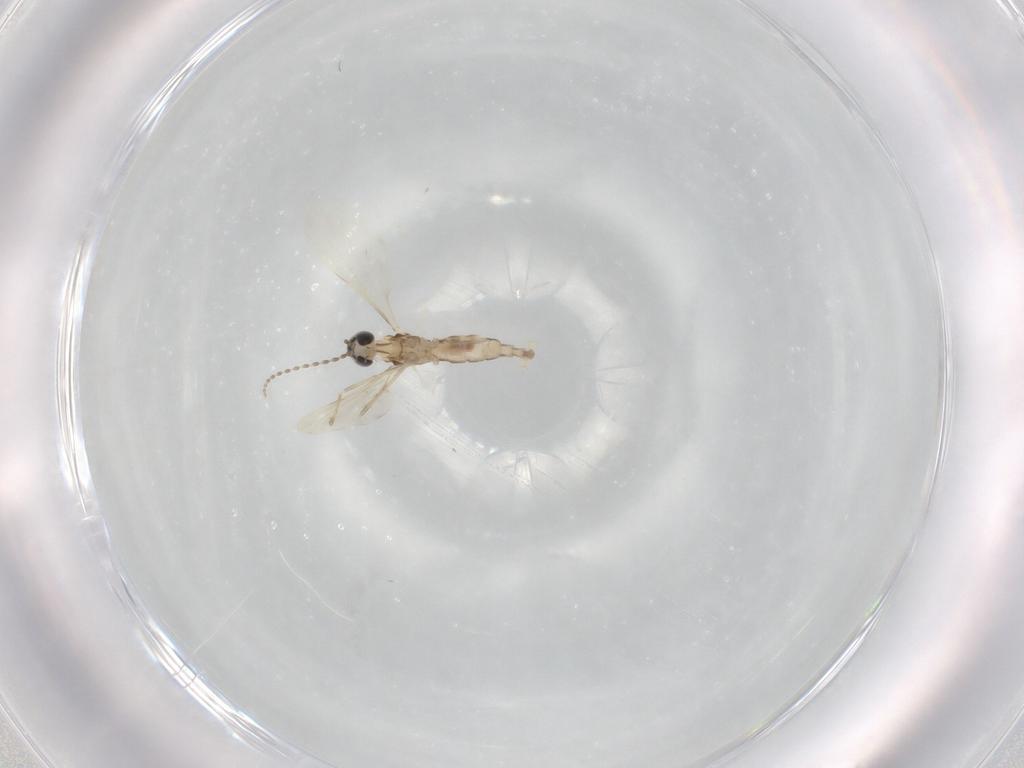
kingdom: Animalia
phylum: Arthropoda
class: Insecta
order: Diptera
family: Cecidomyiidae
